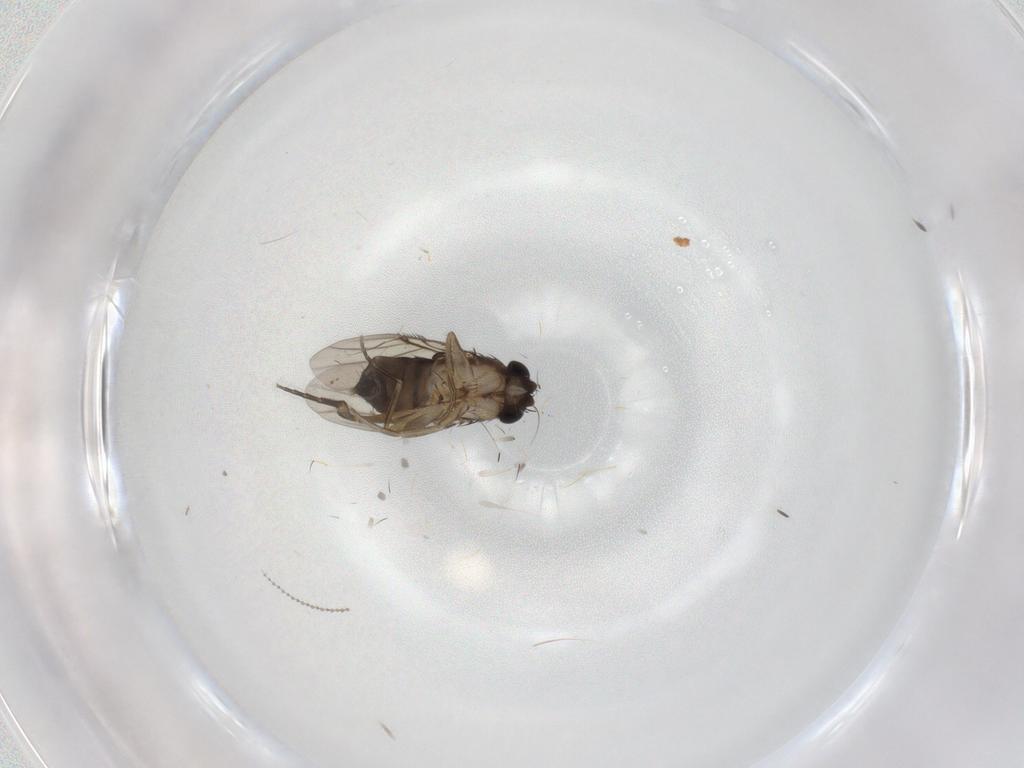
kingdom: Animalia
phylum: Arthropoda
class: Insecta
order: Diptera
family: Phoridae
